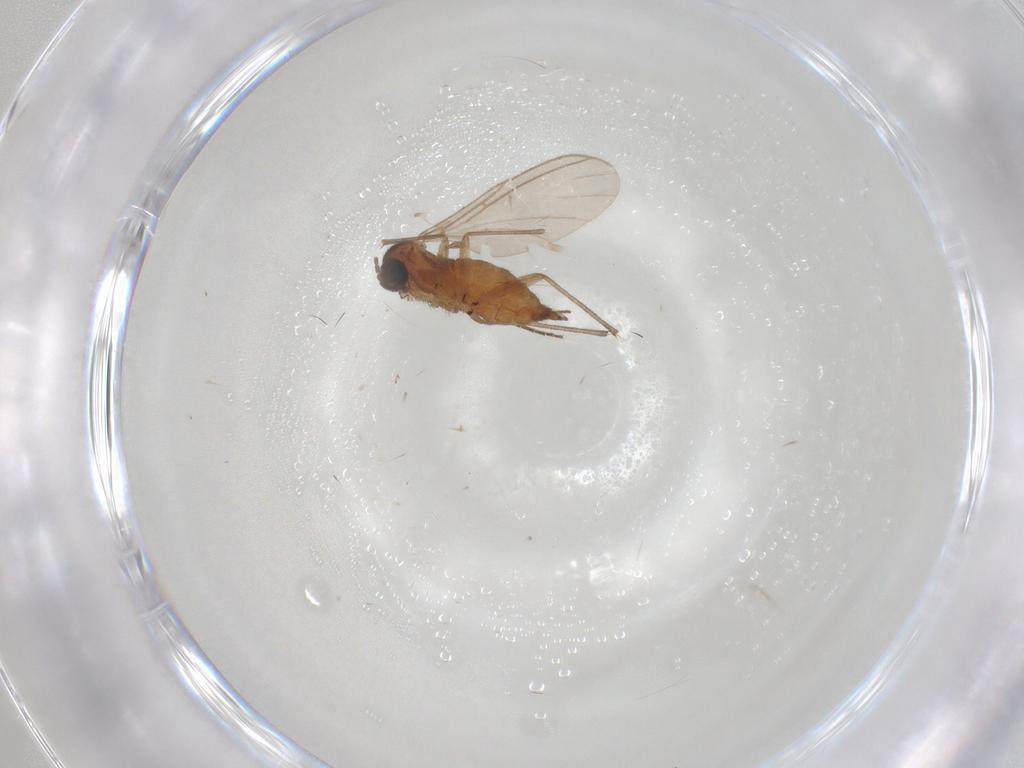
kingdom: Animalia
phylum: Arthropoda
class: Insecta
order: Diptera
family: Sciaridae
